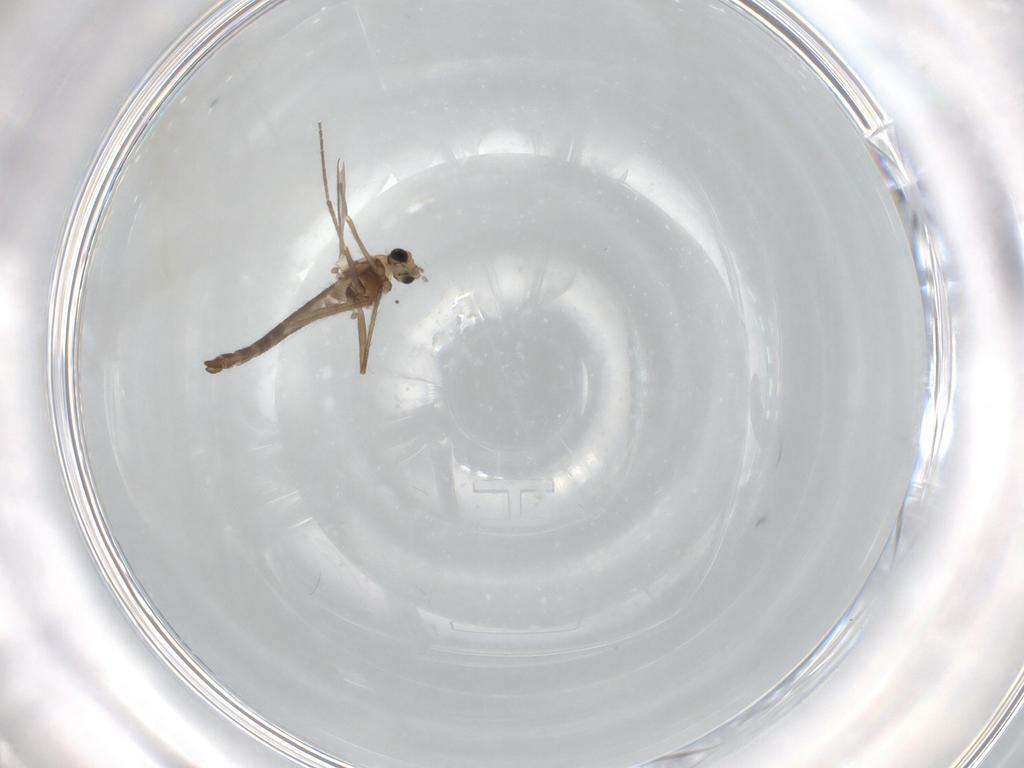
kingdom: Animalia
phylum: Arthropoda
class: Insecta
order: Diptera
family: Chironomidae
